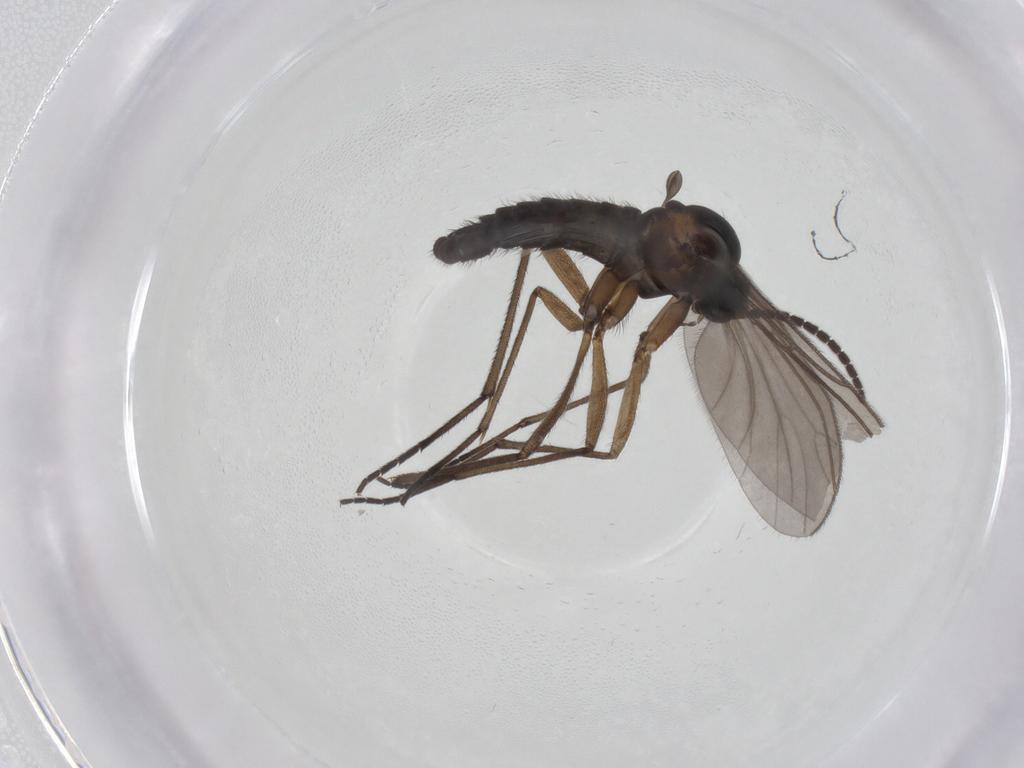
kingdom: Animalia
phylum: Arthropoda
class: Insecta
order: Diptera
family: Sciaridae
